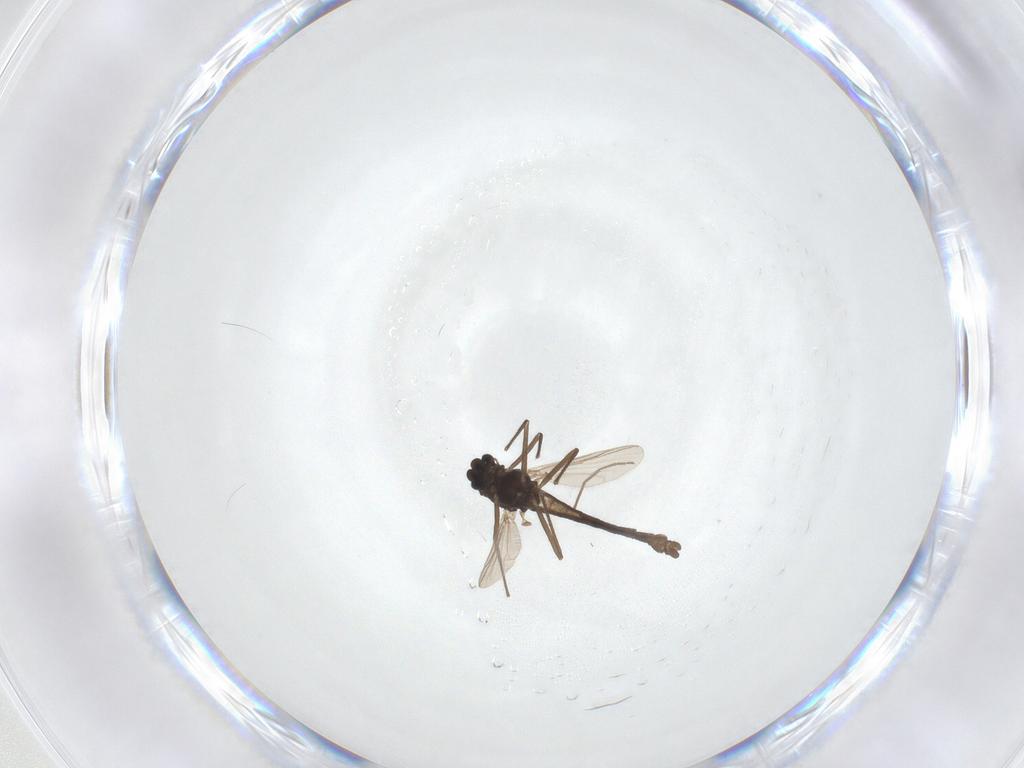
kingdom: Animalia
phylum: Arthropoda
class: Insecta
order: Diptera
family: Chironomidae
